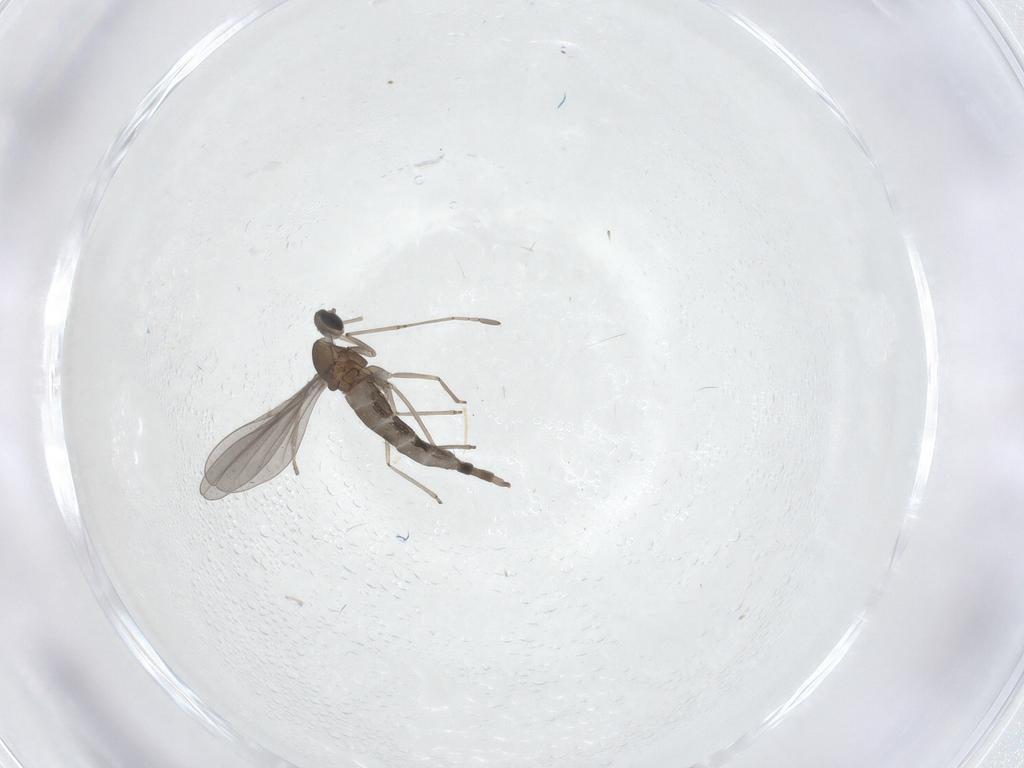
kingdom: Animalia
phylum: Arthropoda
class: Insecta
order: Diptera
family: Cecidomyiidae
